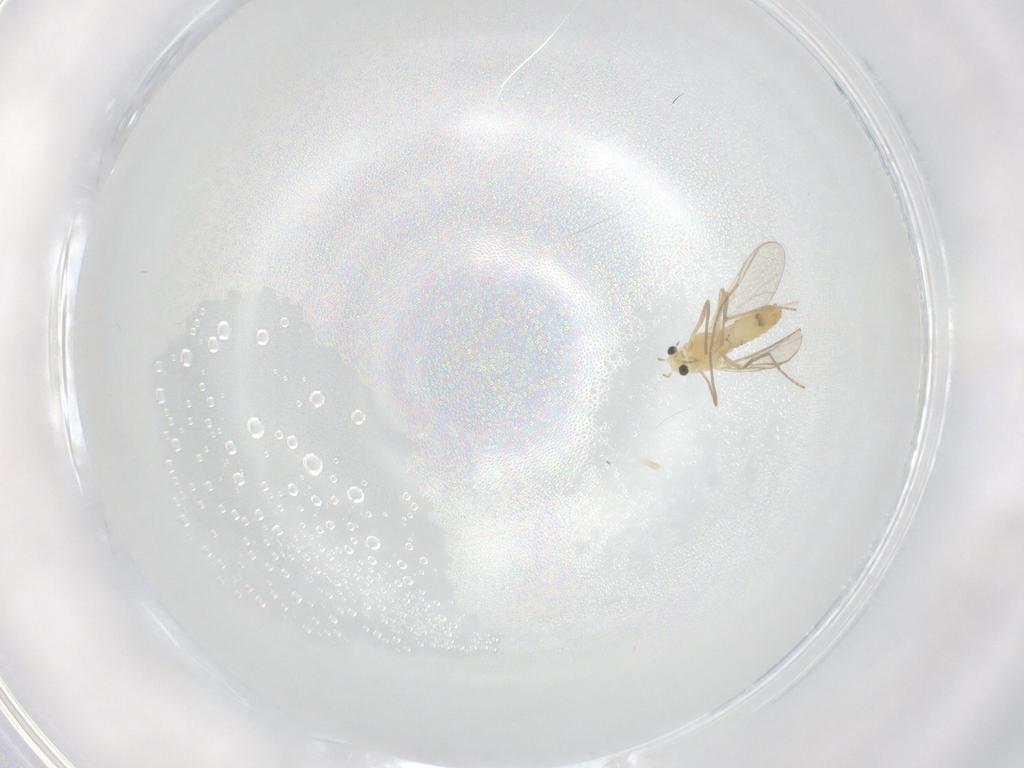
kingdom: Animalia
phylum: Arthropoda
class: Insecta
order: Diptera
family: Chironomidae
